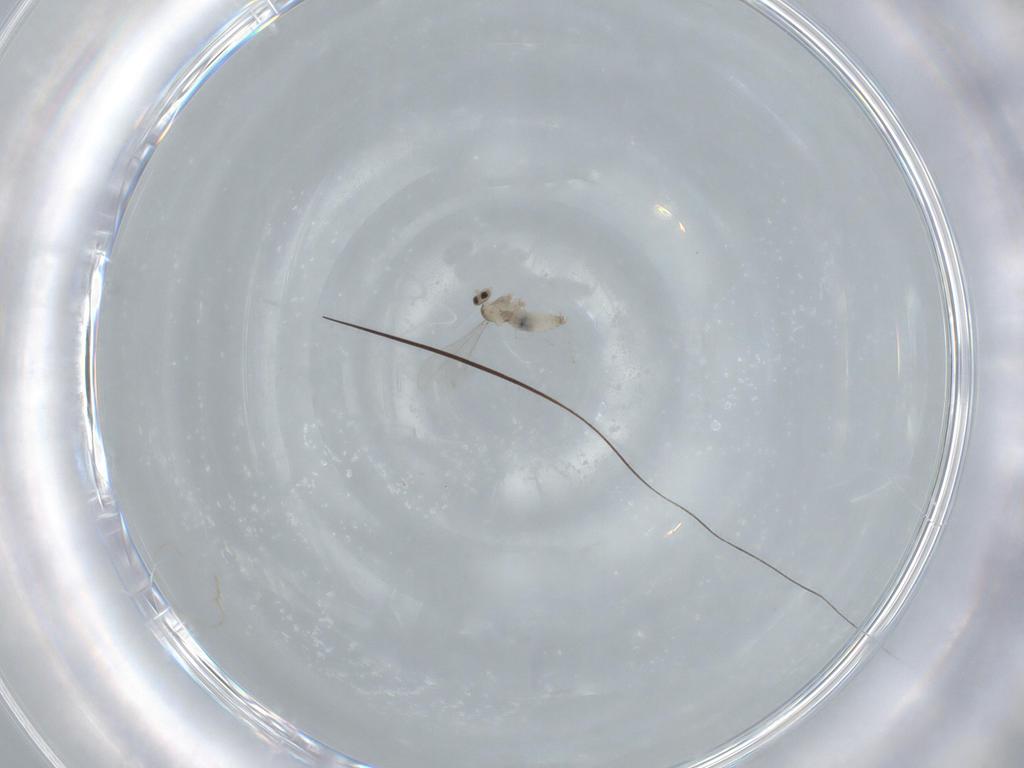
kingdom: Animalia
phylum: Arthropoda
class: Insecta
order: Diptera
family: Cecidomyiidae
